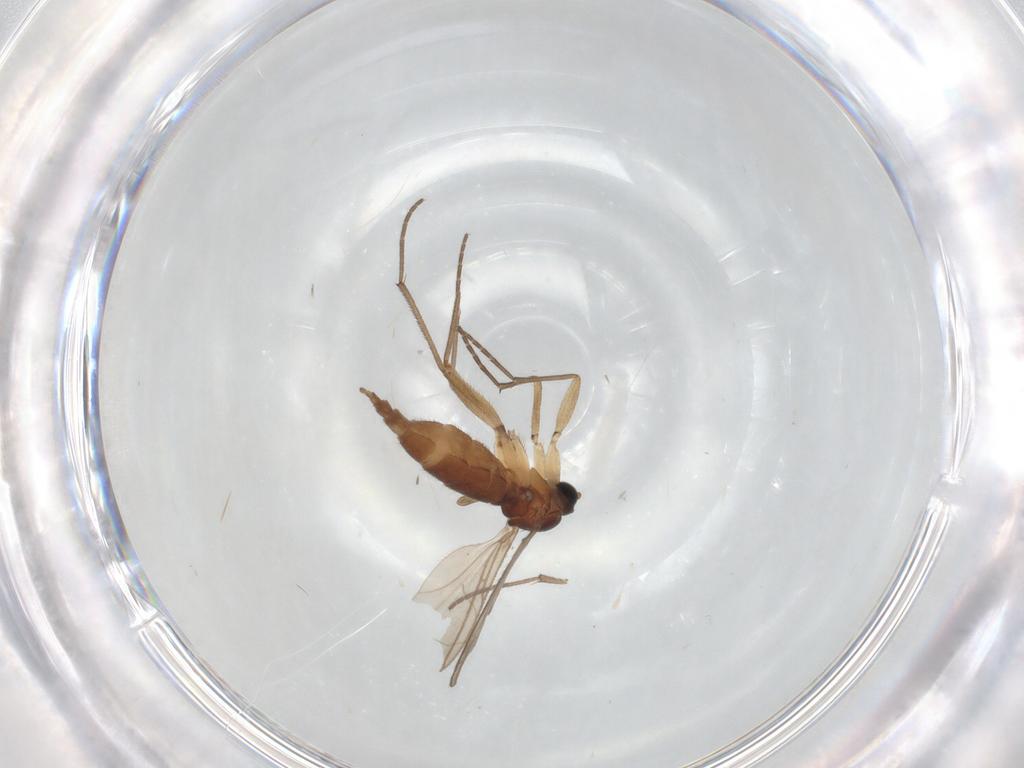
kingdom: Animalia
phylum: Arthropoda
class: Insecta
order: Diptera
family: Sciaridae
